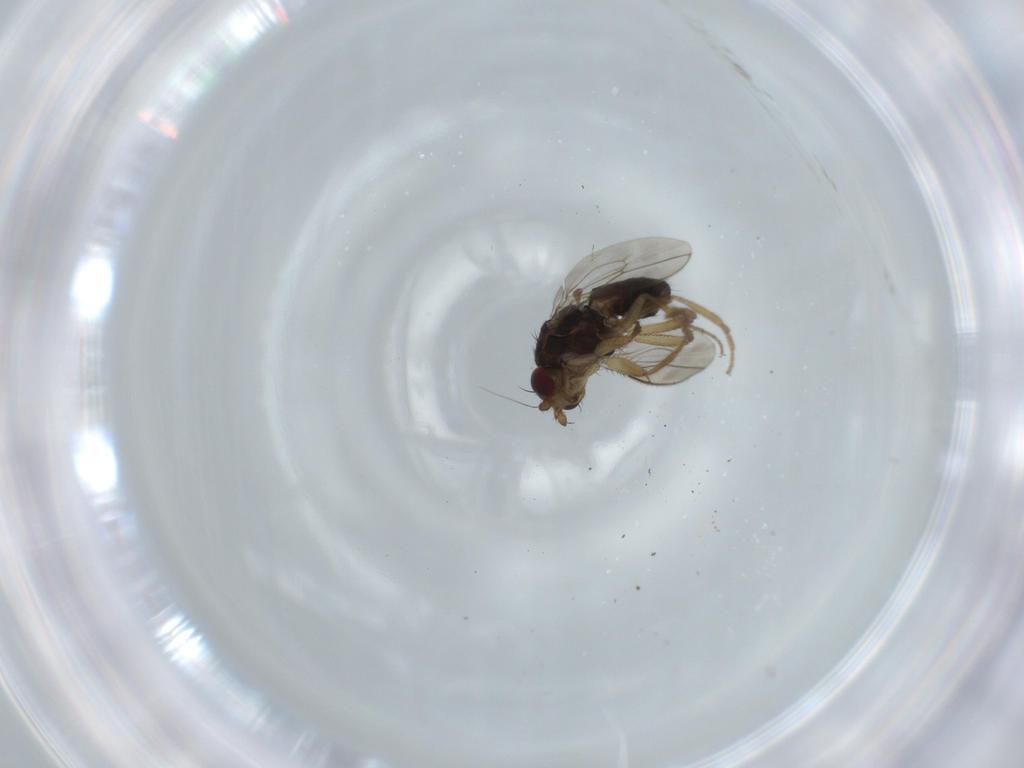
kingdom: Animalia
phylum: Arthropoda
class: Insecta
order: Diptera
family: Sphaeroceridae
